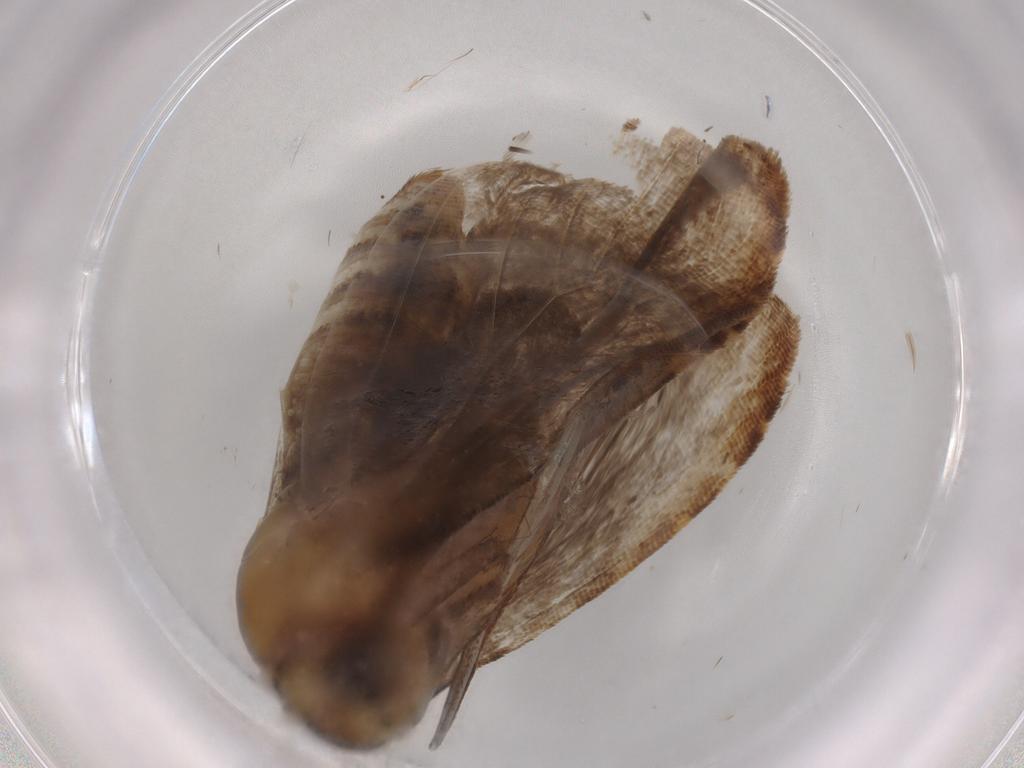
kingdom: Animalia
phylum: Arthropoda
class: Insecta
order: Lepidoptera
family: Erebidae
